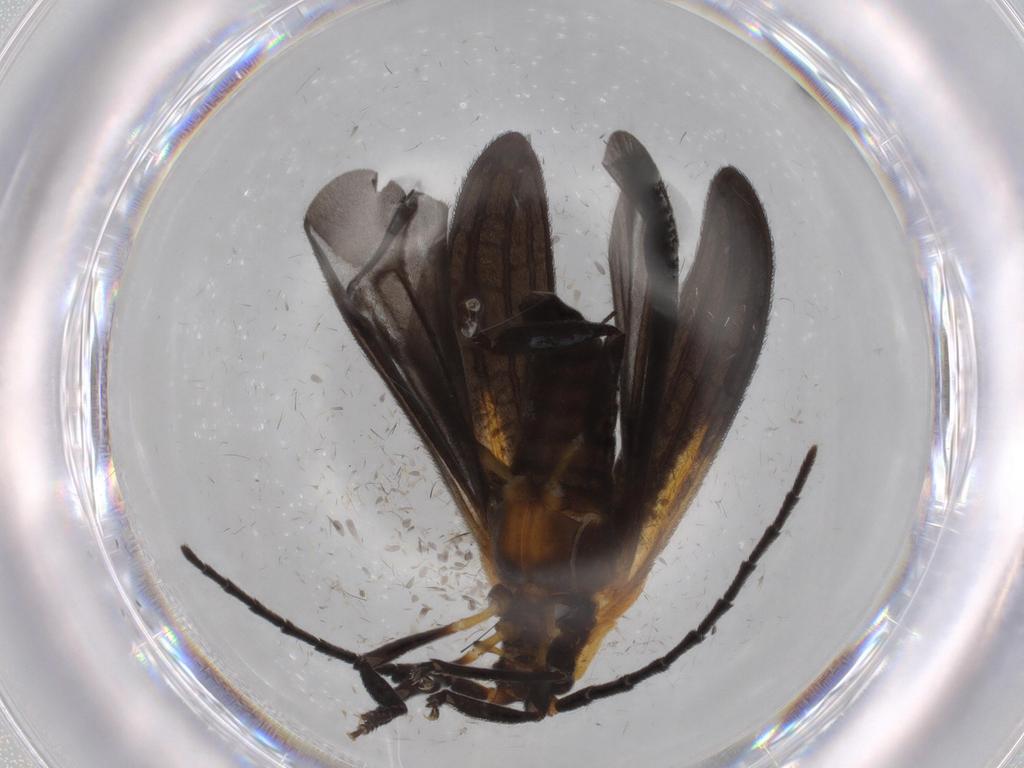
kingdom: Animalia
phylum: Arthropoda
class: Insecta
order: Coleoptera
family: Lycidae
